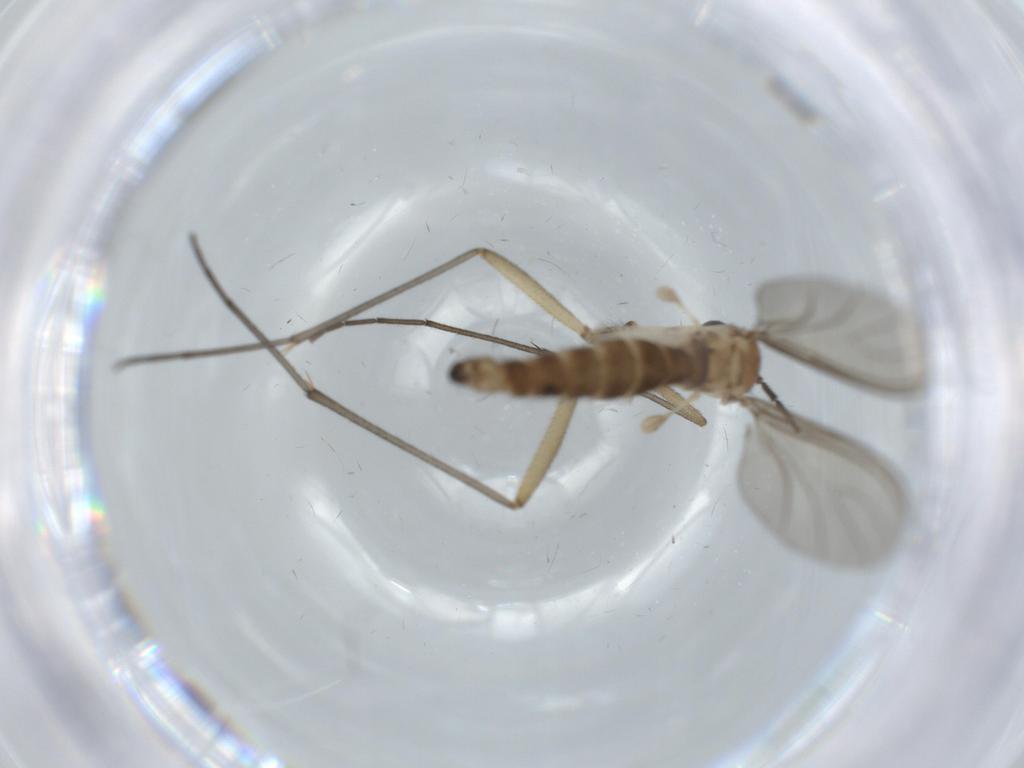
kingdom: Animalia
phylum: Arthropoda
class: Insecta
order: Diptera
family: Sciaridae
